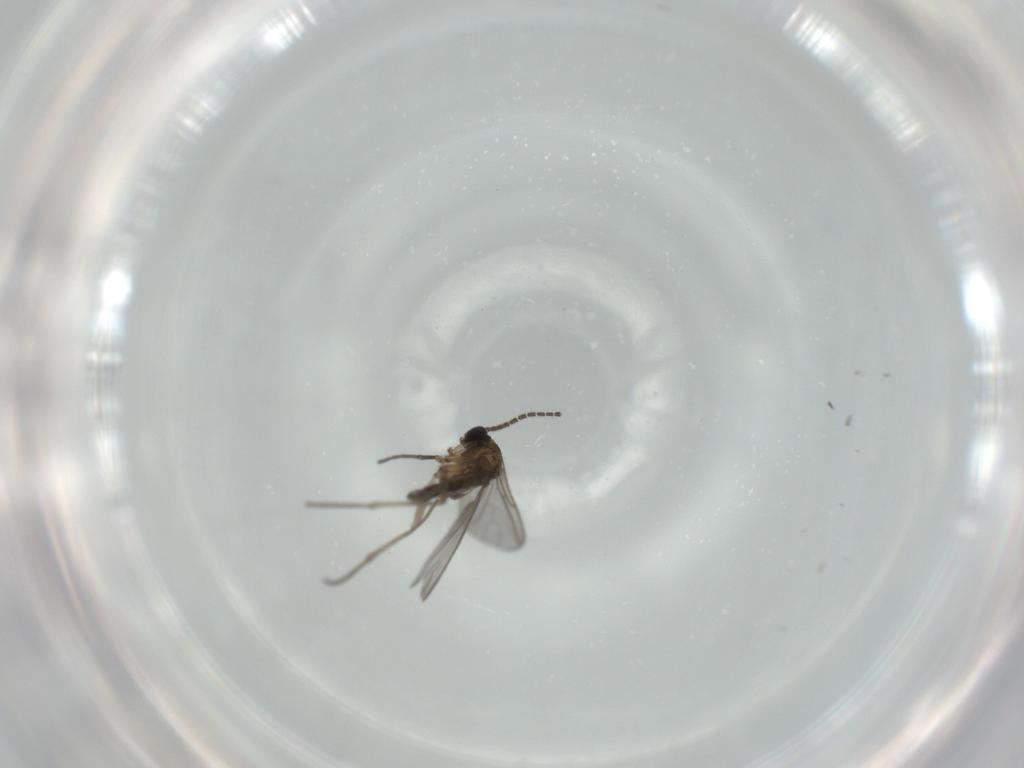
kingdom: Animalia
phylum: Arthropoda
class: Insecta
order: Diptera
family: Sciaridae
